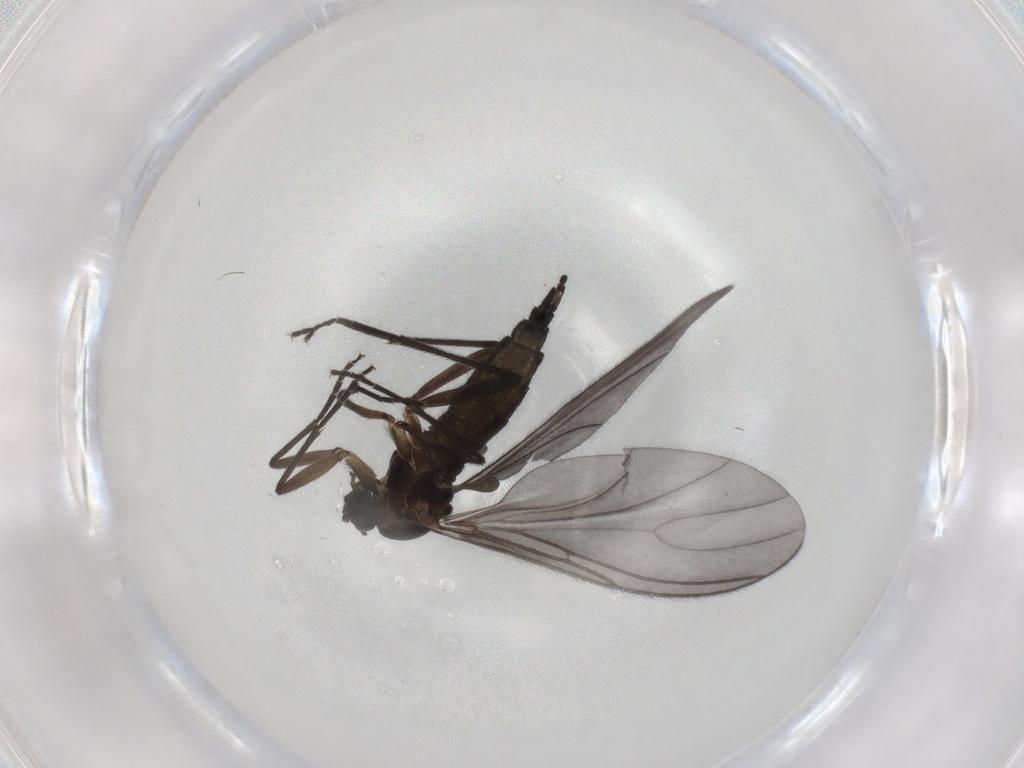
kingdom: Animalia
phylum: Arthropoda
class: Insecta
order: Diptera
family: Sciaridae
